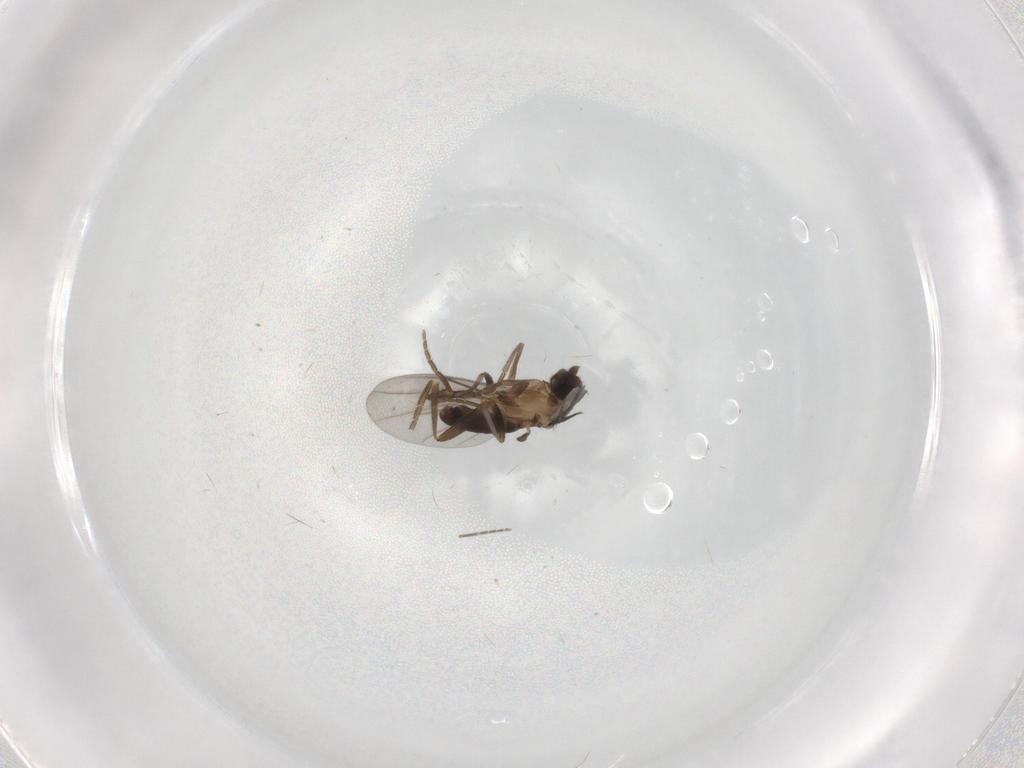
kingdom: Animalia
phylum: Arthropoda
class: Insecta
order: Diptera
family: Phoridae
